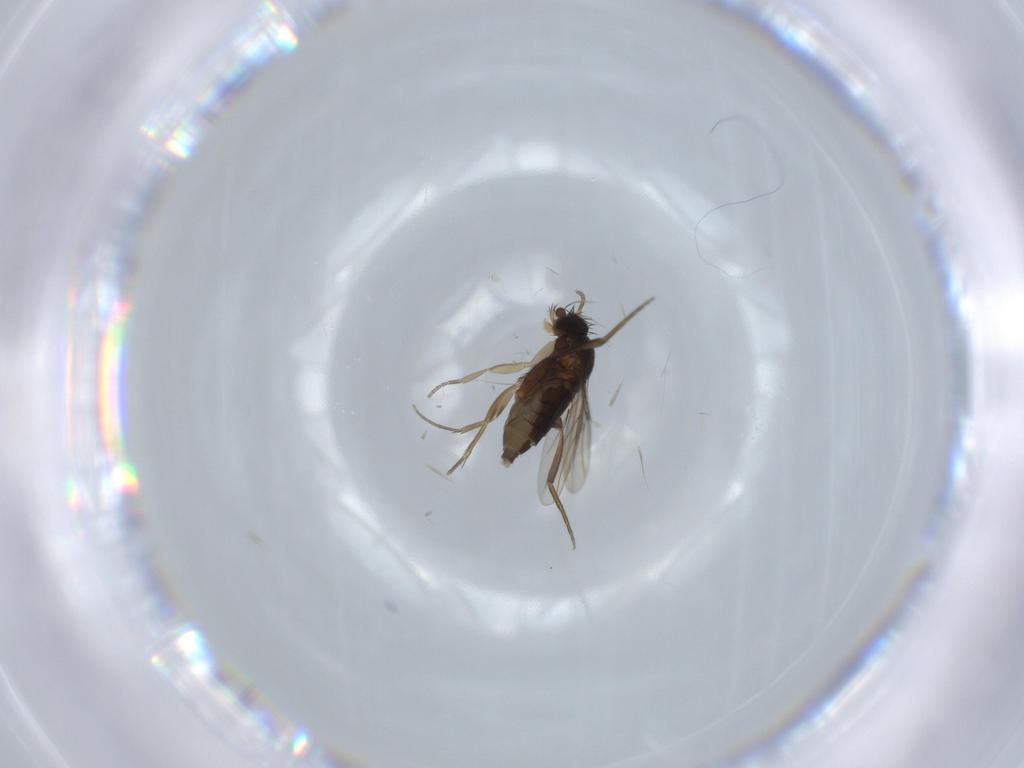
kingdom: Animalia
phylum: Arthropoda
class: Insecta
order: Diptera
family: Phoridae
